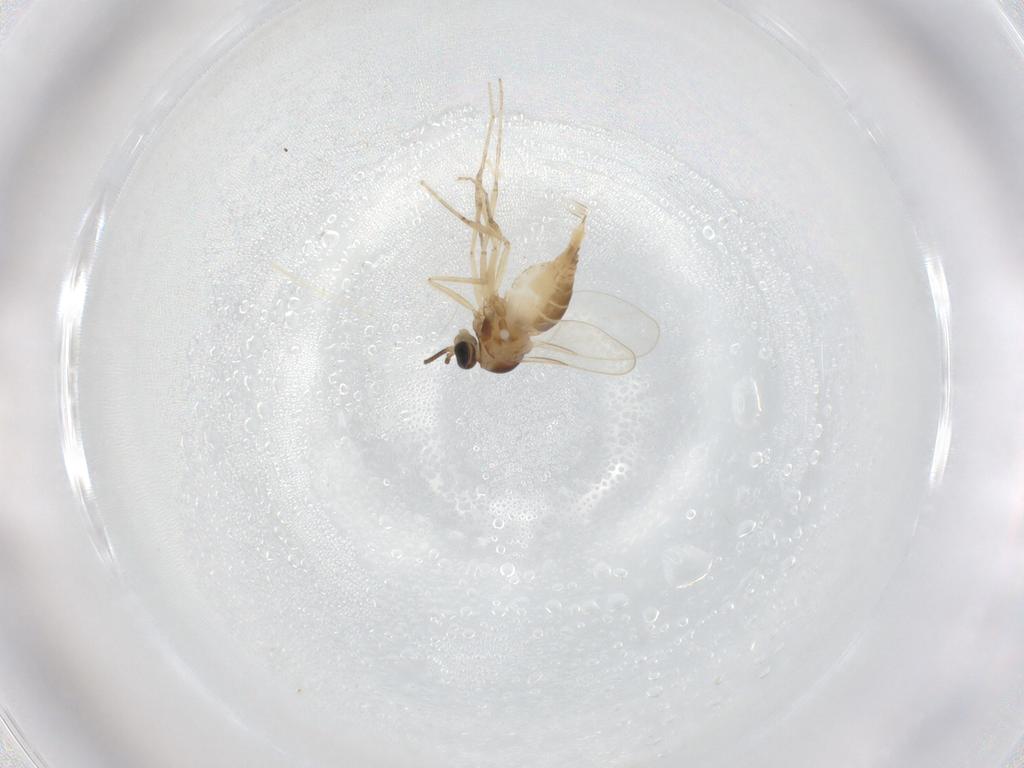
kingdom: Animalia
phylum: Arthropoda
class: Insecta
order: Diptera
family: Cecidomyiidae
